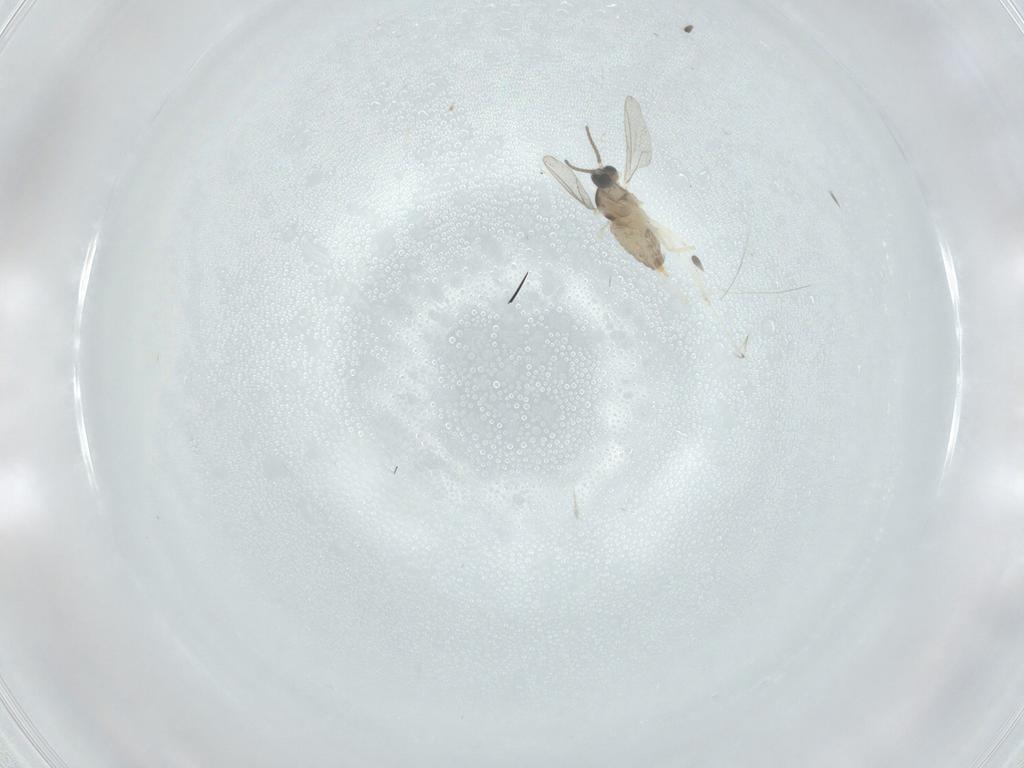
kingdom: Animalia
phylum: Arthropoda
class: Insecta
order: Diptera
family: Cecidomyiidae
